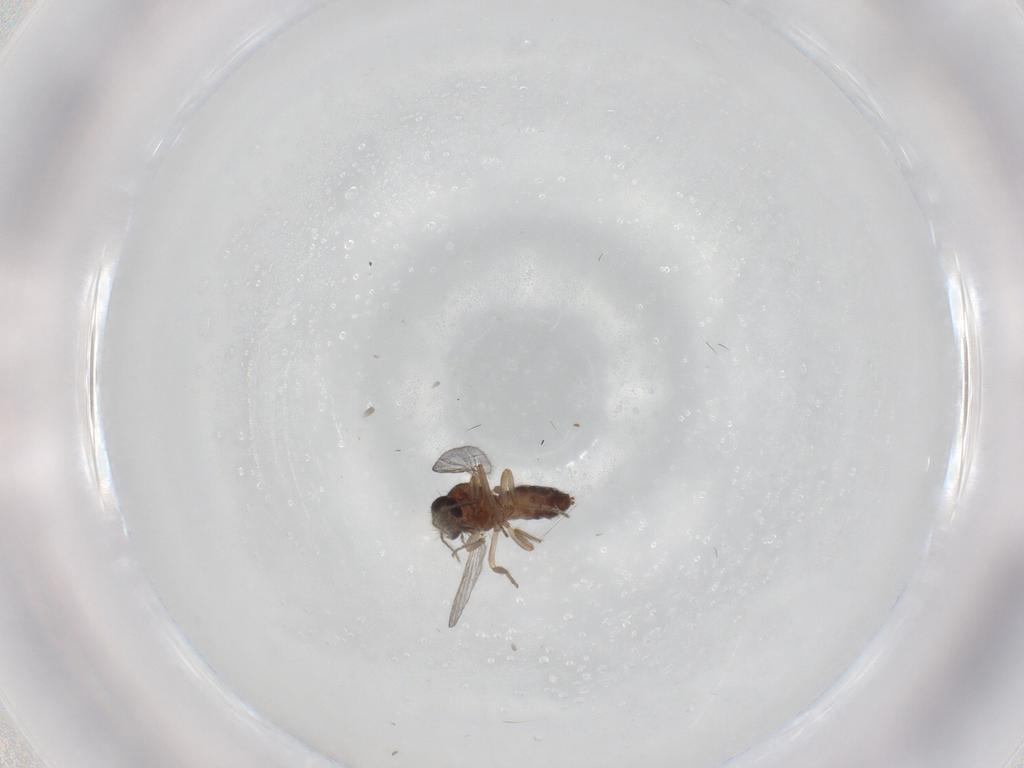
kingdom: Animalia
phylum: Arthropoda
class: Insecta
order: Diptera
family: Ceratopogonidae
